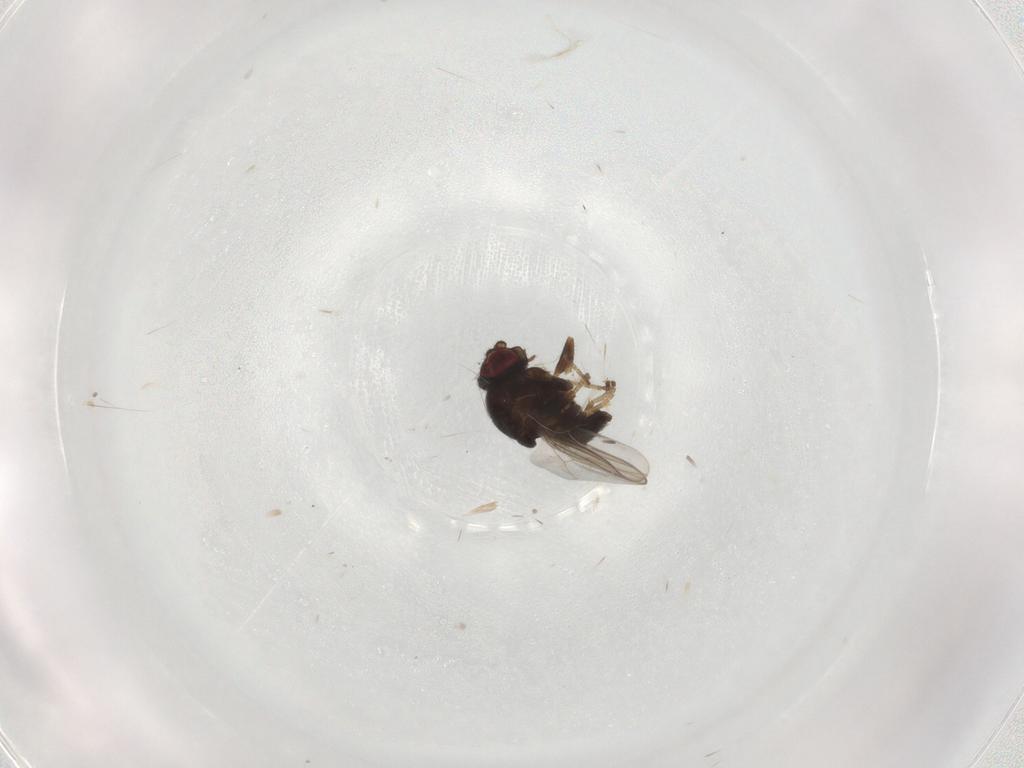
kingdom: Animalia
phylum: Arthropoda
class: Insecta
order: Diptera
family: Chloropidae
